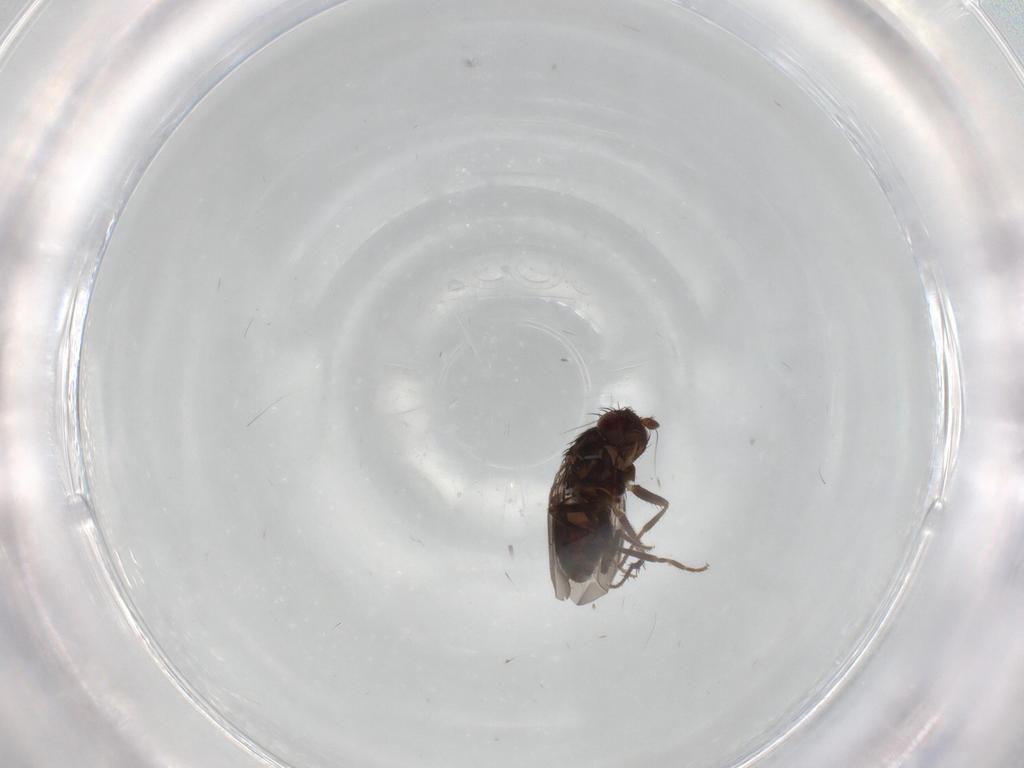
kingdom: Animalia
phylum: Arthropoda
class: Insecta
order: Diptera
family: Sphaeroceridae
